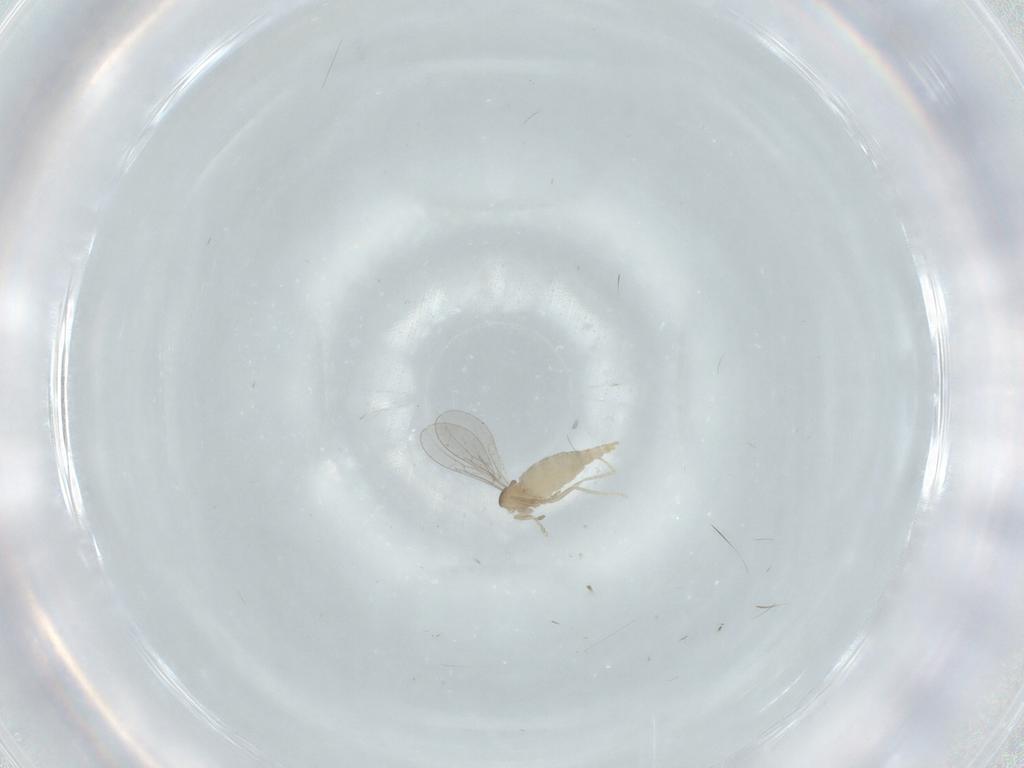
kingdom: Animalia
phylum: Arthropoda
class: Insecta
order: Diptera
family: Cecidomyiidae
